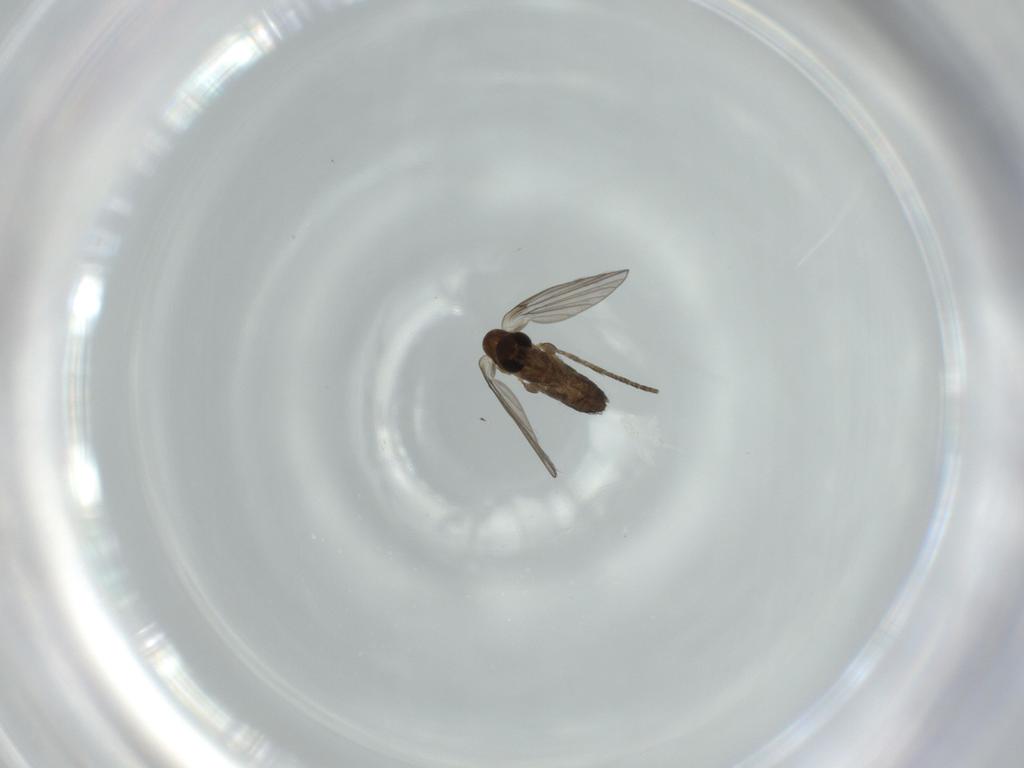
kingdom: Animalia
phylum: Arthropoda
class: Insecta
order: Diptera
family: Psychodidae
